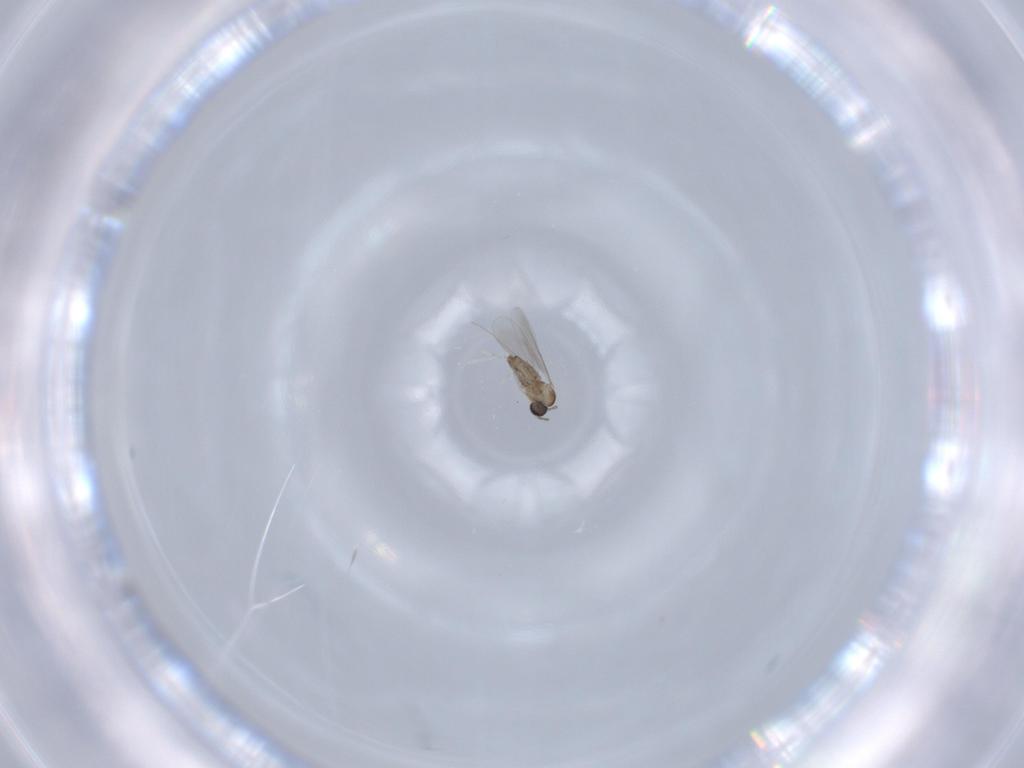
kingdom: Animalia
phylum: Arthropoda
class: Insecta
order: Diptera
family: Cecidomyiidae
